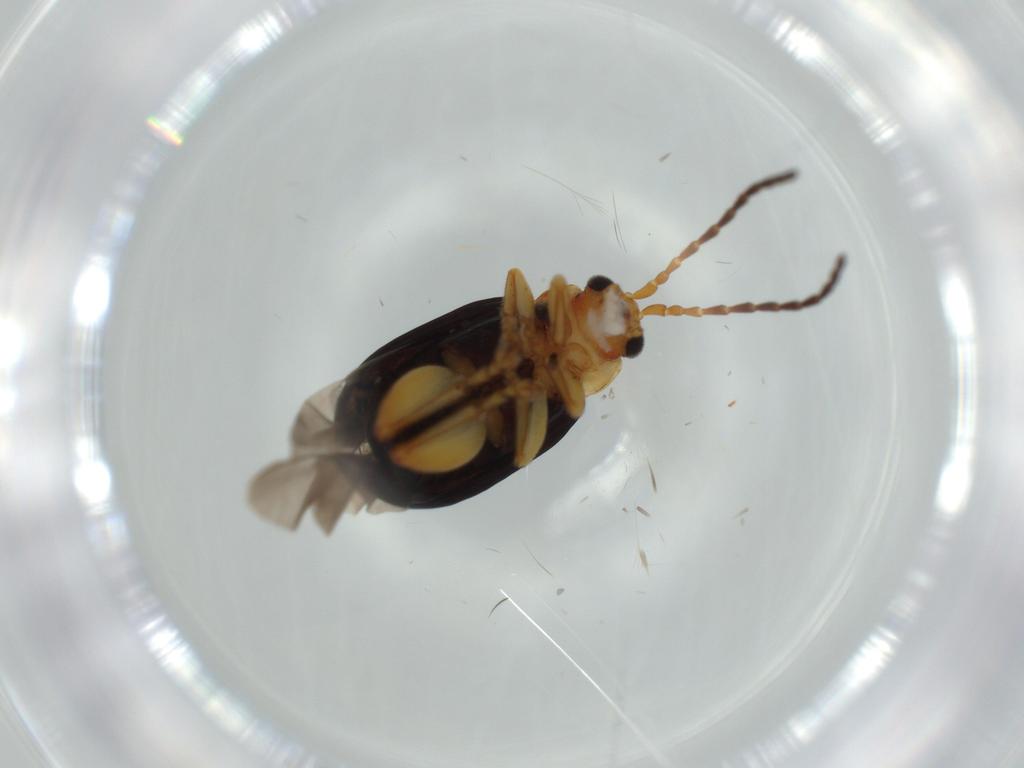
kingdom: Animalia
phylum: Arthropoda
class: Insecta
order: Coleoptera
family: Chrysomelidae
